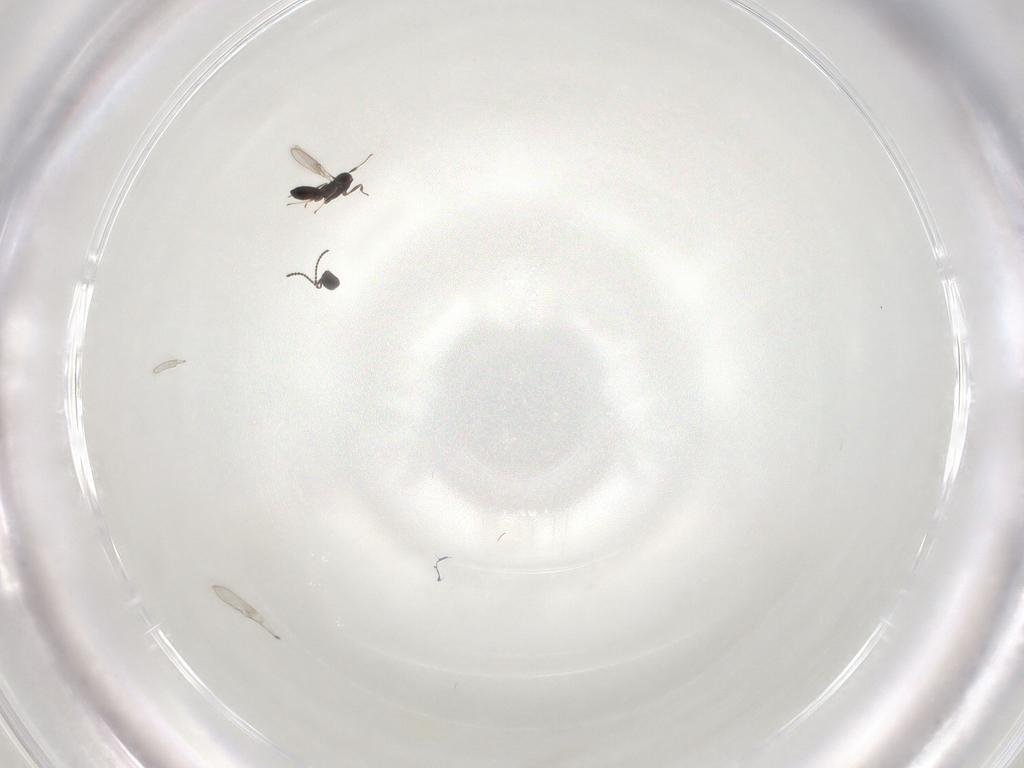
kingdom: Animalia
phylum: Arthropoda
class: Insecta
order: Hymenoptera
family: Scelionidae
